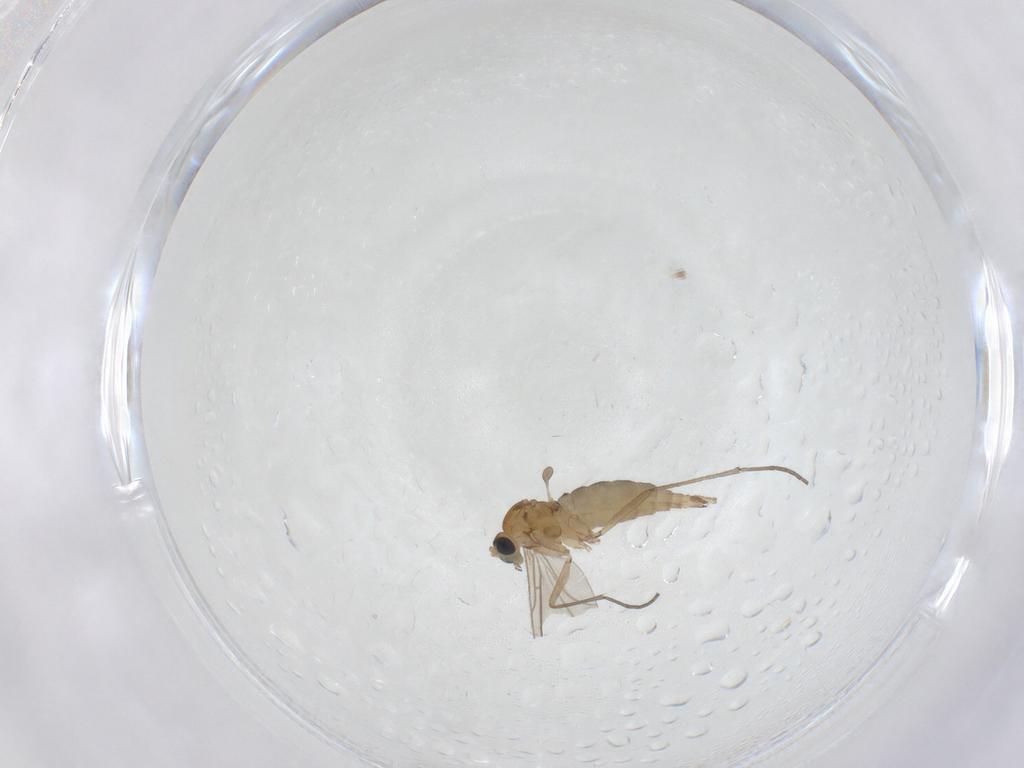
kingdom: Animalia
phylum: Arthropoda
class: Insecta
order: Diptera
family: Sciaridae
